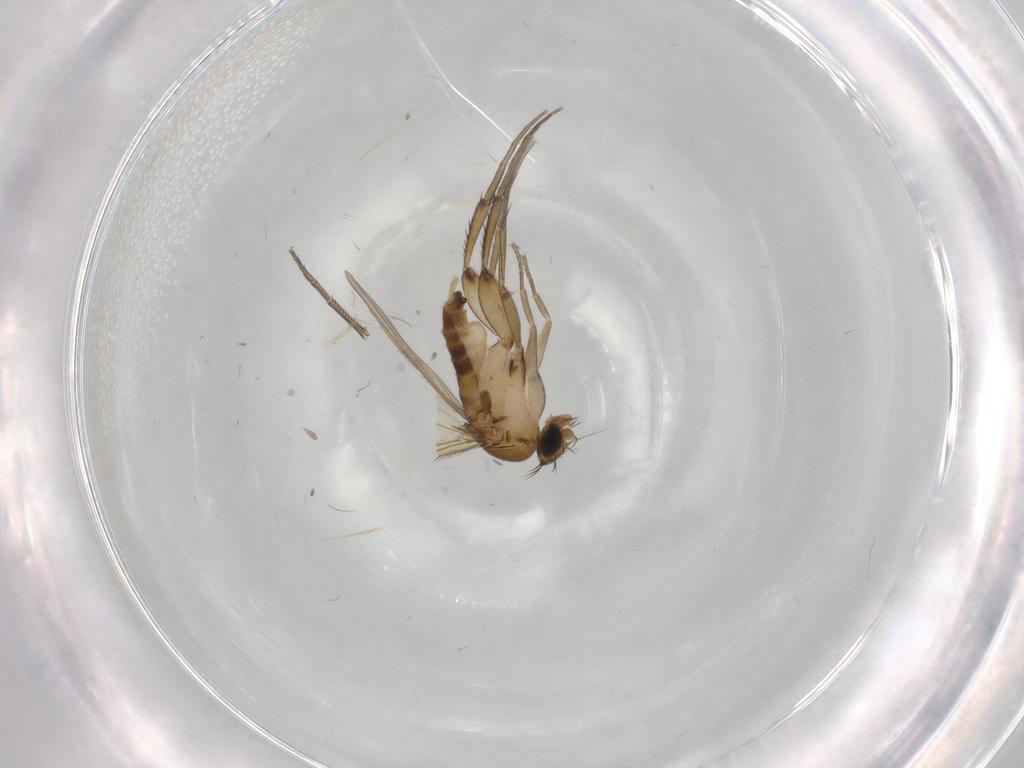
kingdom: Animalia
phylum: Arthropoda
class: Insecta
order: Diptera
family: Phoridae
